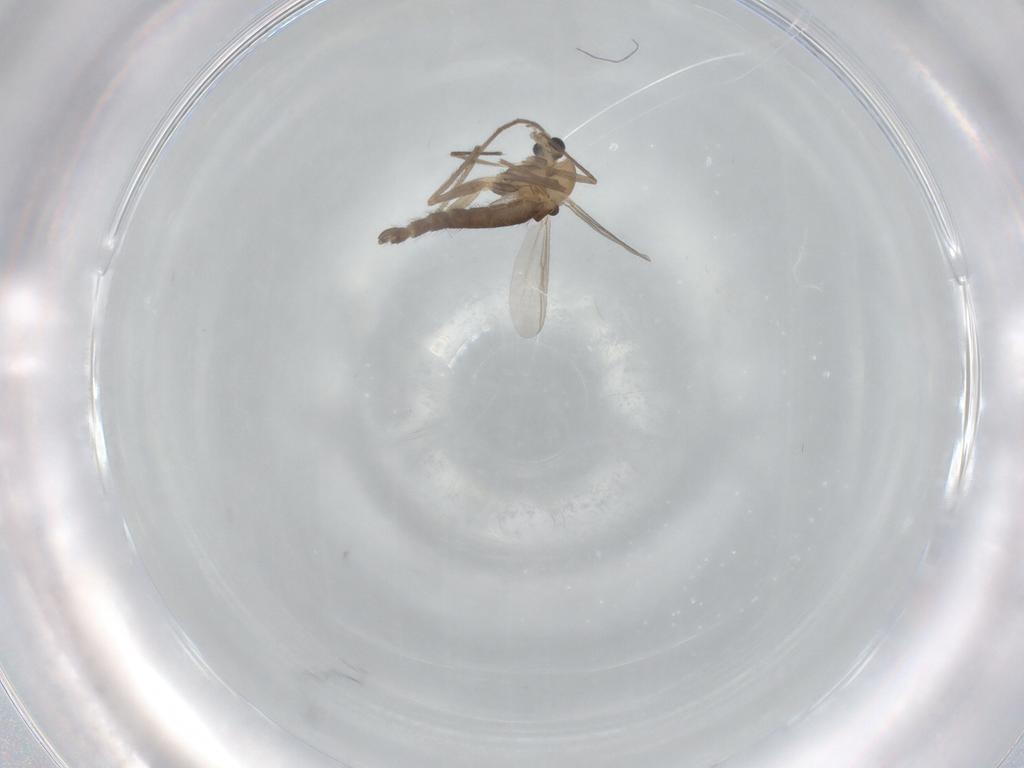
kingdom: Animalia
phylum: Arthropoda
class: Insecta
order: Diptera
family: Chironomidae
